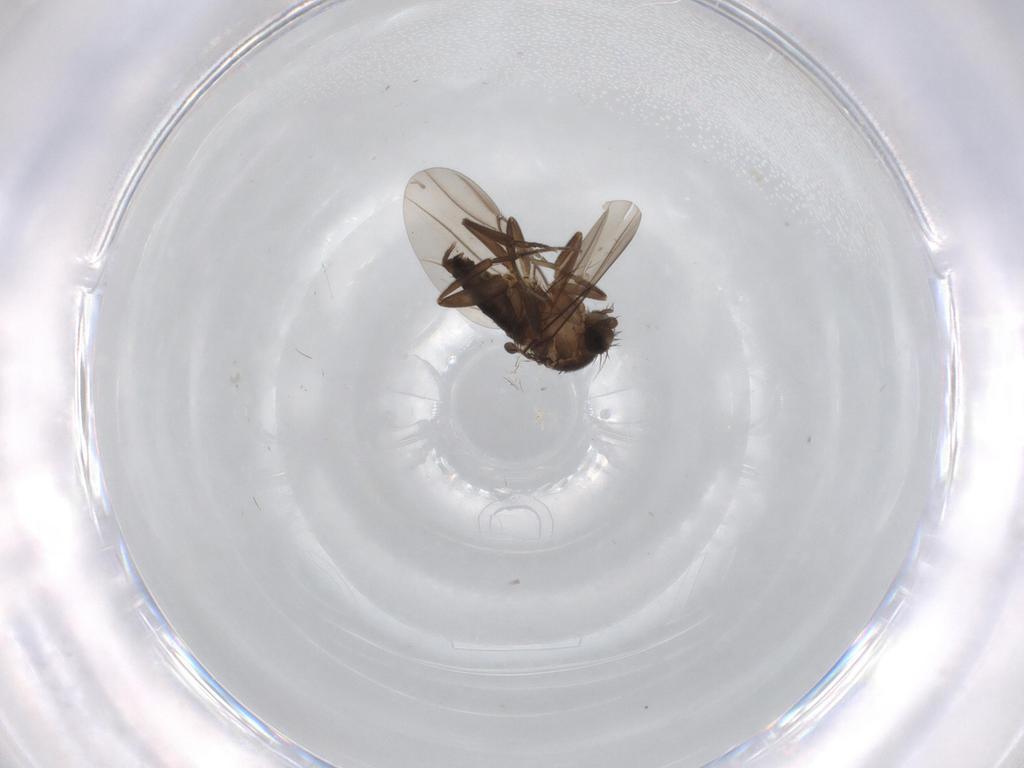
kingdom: Animalia
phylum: Arthropoda
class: Insecta
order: Diptera
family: Phoridae
